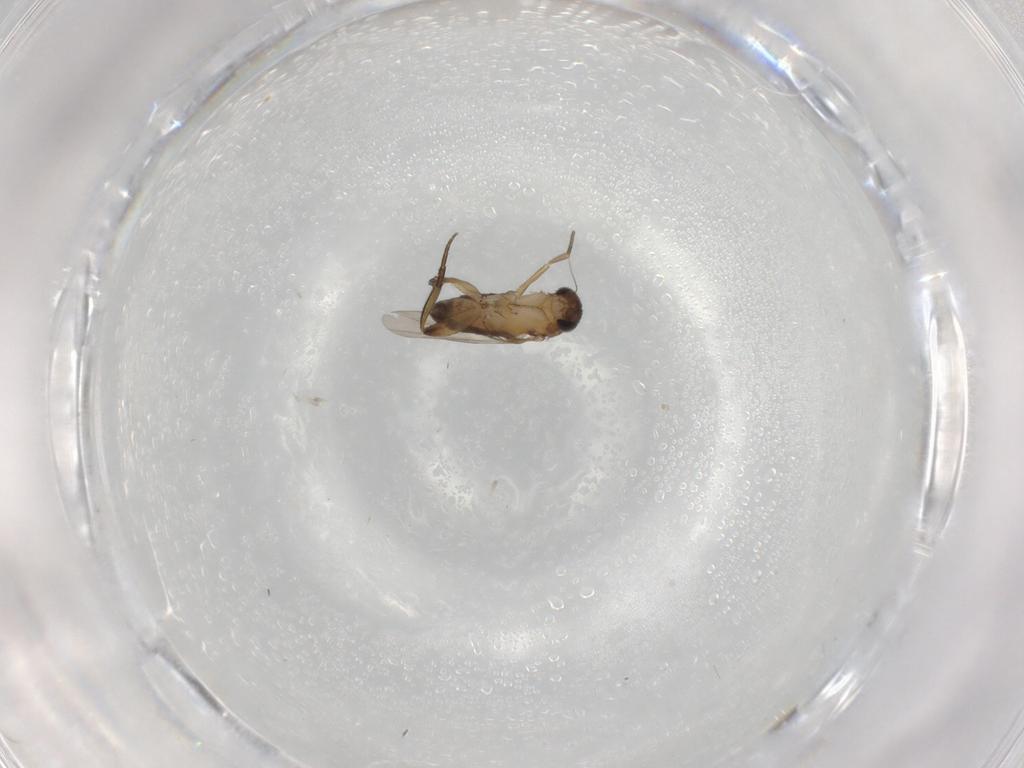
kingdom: Animalia
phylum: Arthropoda
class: Insecta
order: Diptera
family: Phoridae
